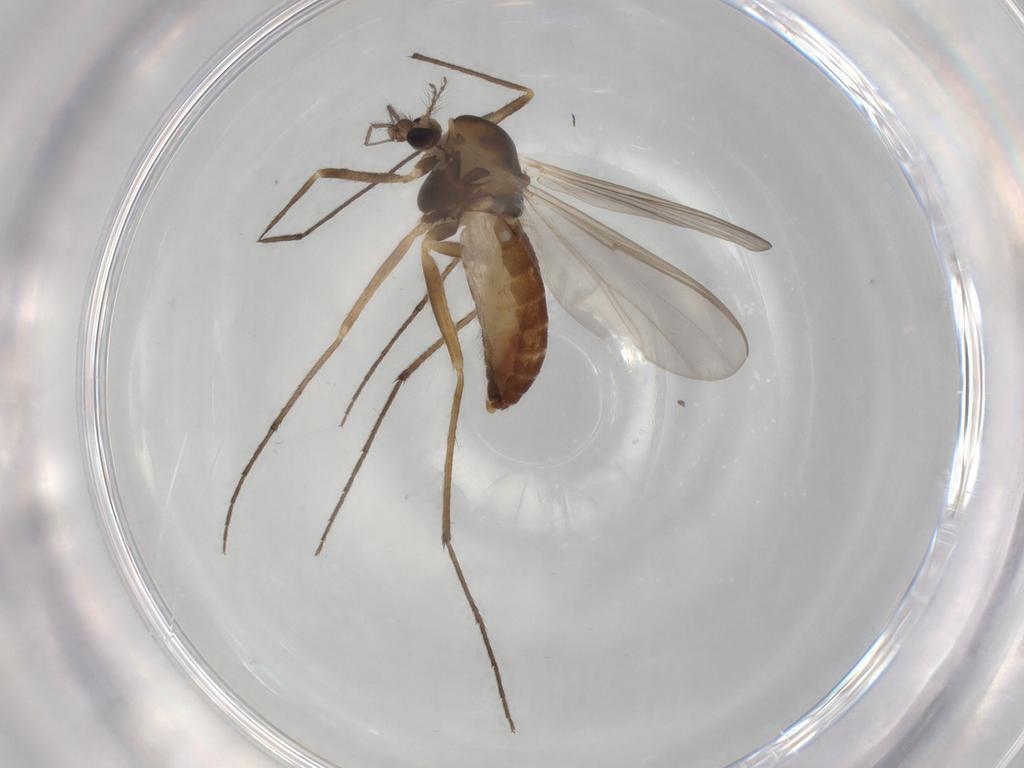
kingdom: Animalia
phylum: Arthropoda
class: Insecta
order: Diptera
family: Chironomidae
